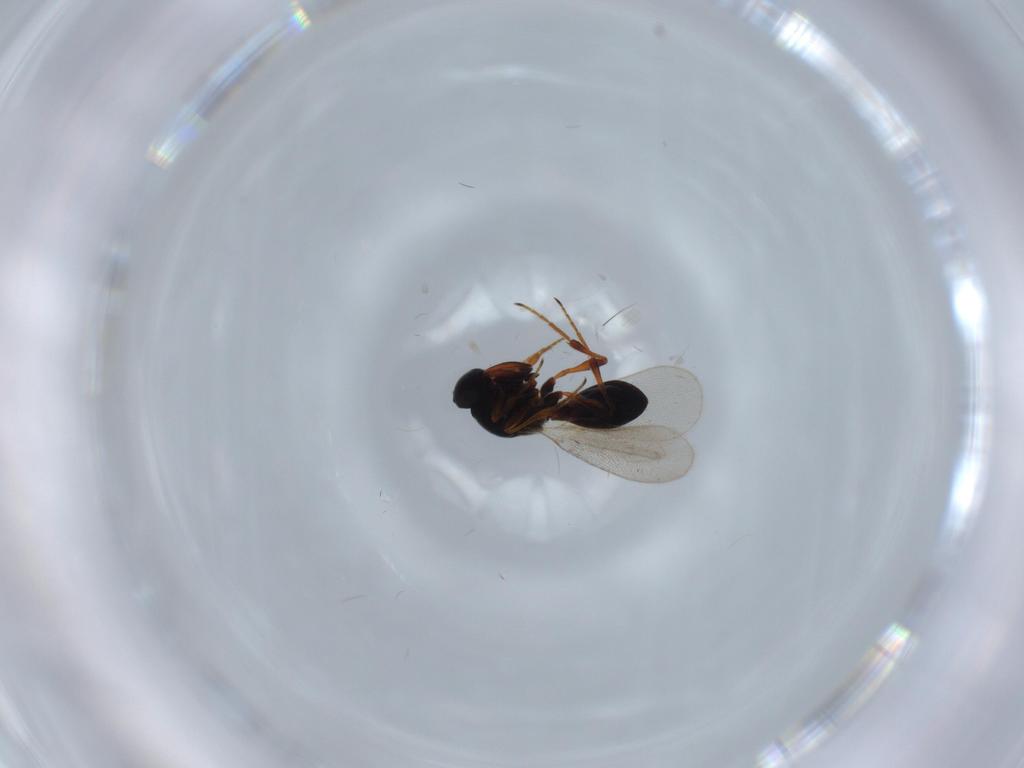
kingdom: Animalia
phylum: Arthropoda
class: Insecta
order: Hymenoptera
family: Platygastridae
